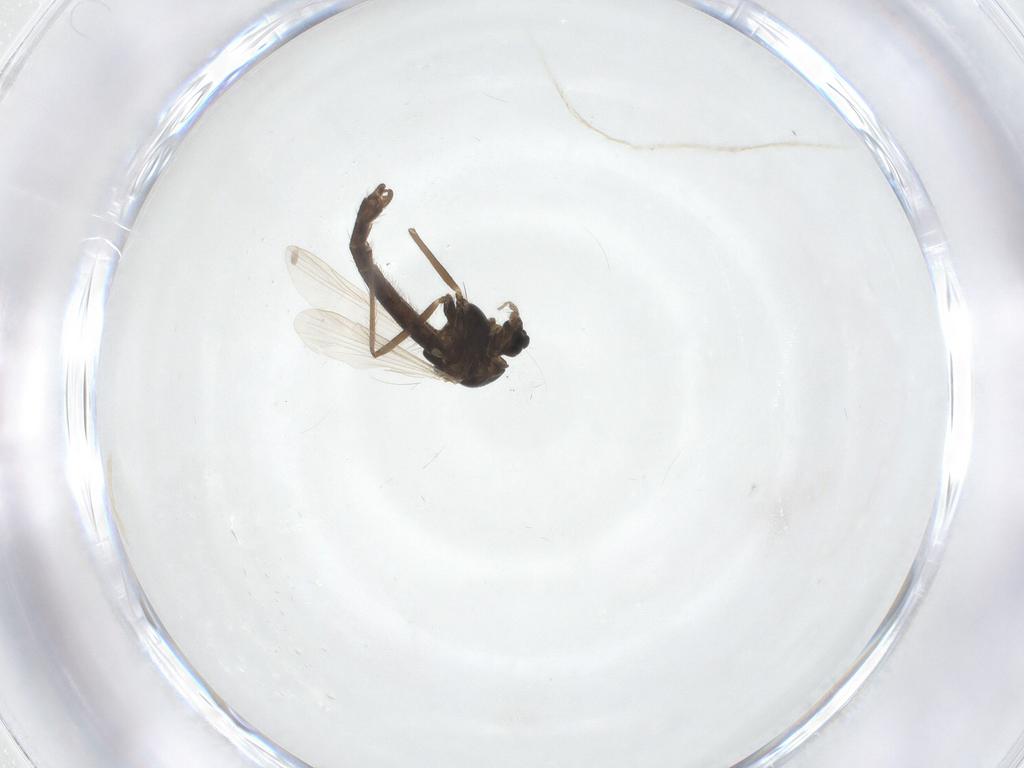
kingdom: Animalia
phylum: Arthropoda
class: Insecta
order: Diptera
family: Chironomidae
